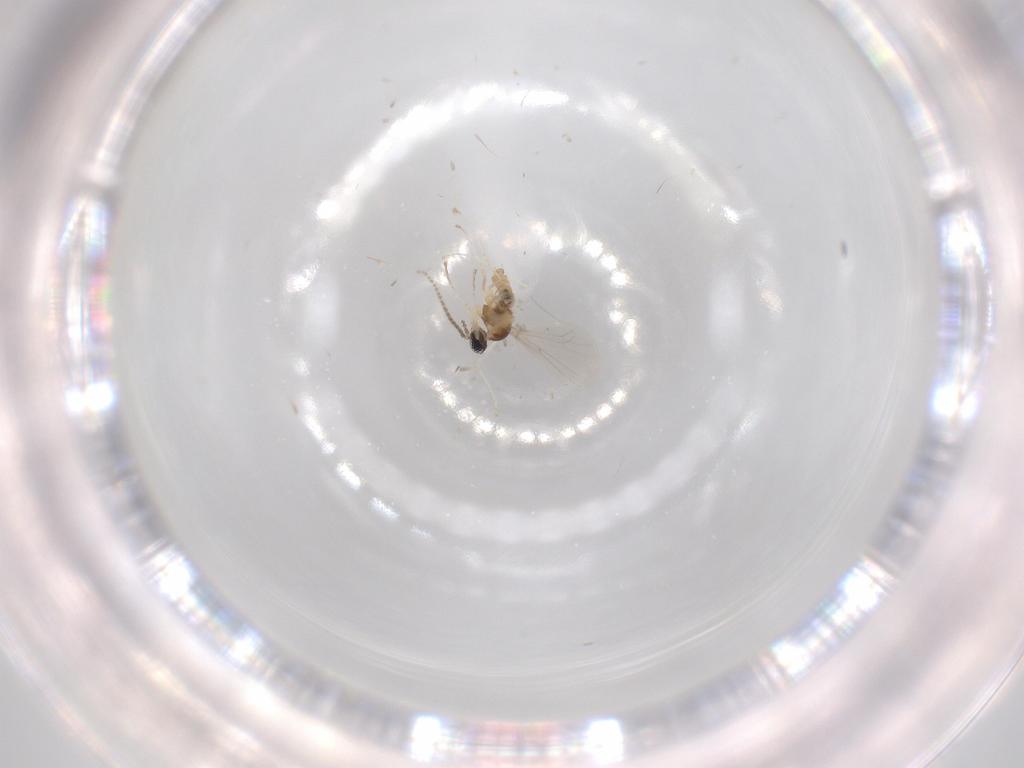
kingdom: Animalia
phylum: Arthropoda
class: Insecta
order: Diptera
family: Cecidomyiidae
